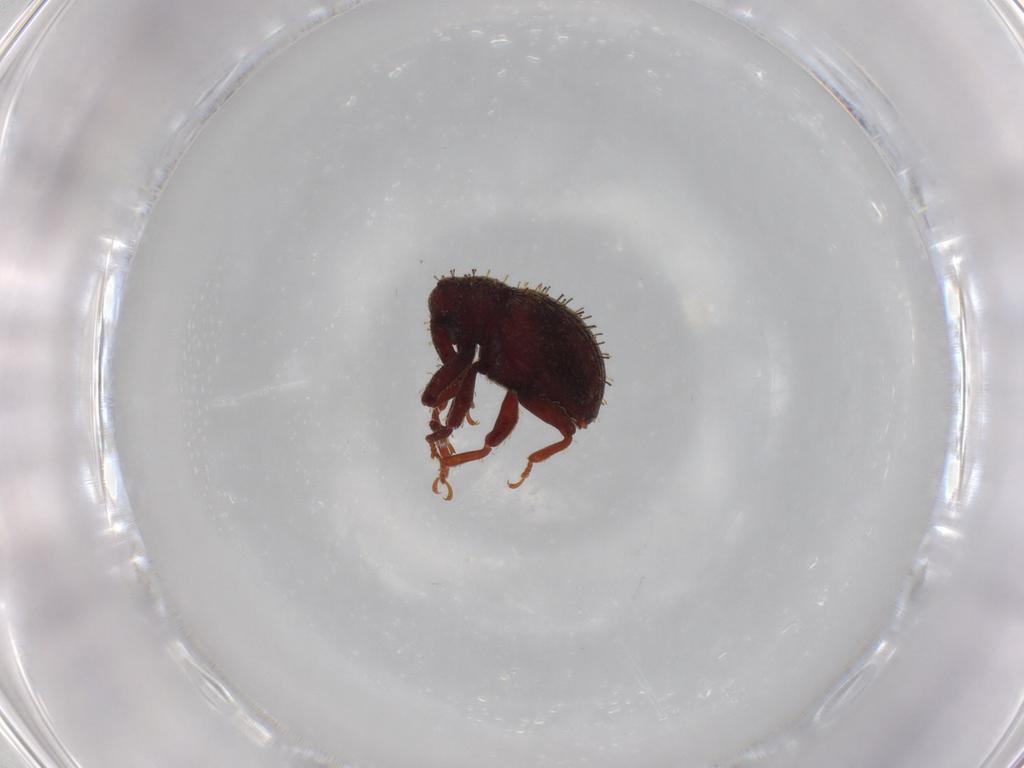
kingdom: Animalia
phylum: Arthropoda
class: Insecta
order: Coleoptera
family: Curculionidae
